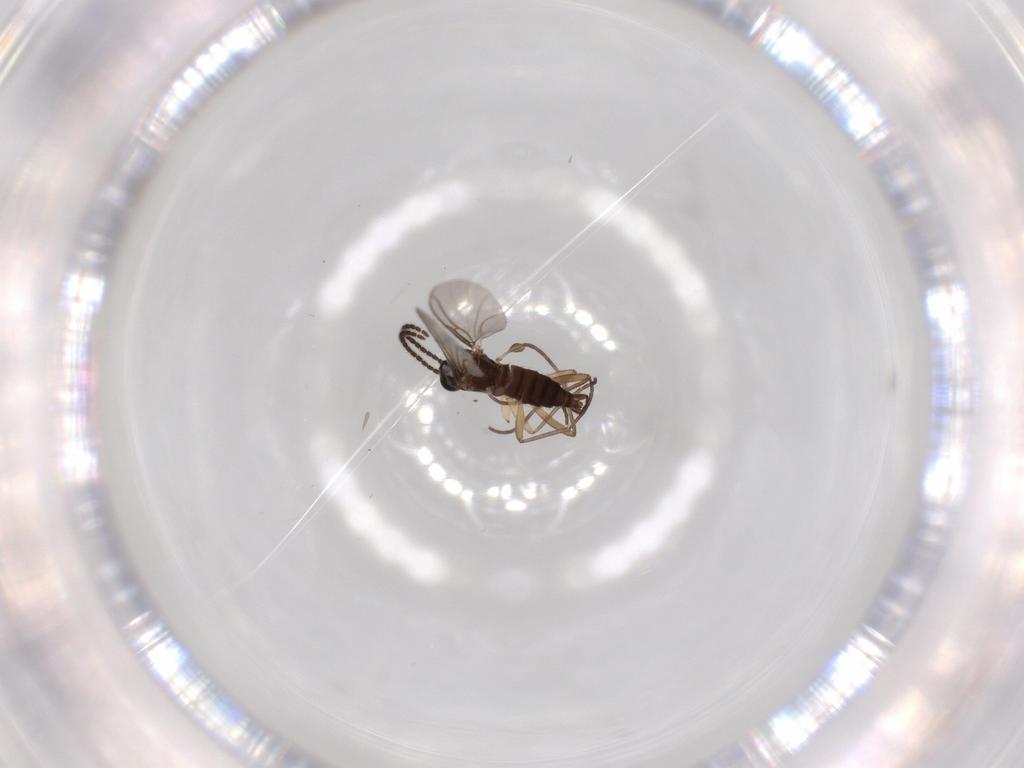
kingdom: Animalia
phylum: Arthropoda
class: Insecta
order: Diptera
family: Sciaridae
